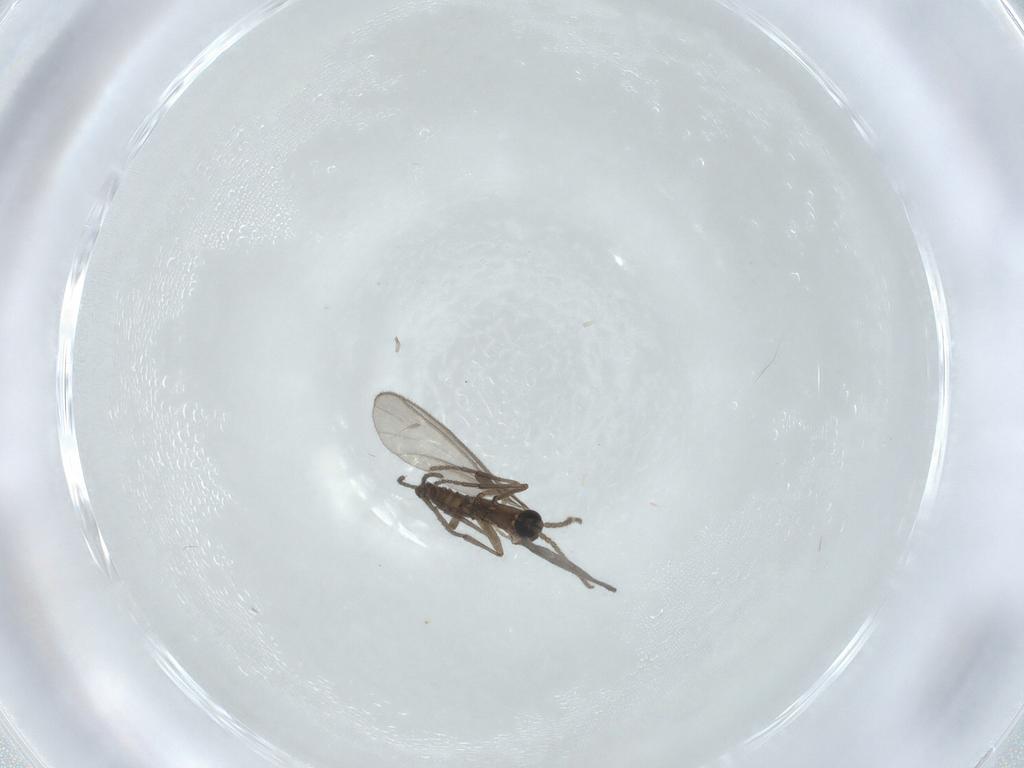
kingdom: Animalia
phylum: Arthropoda
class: Insecta
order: Diptera
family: Sciaridae
